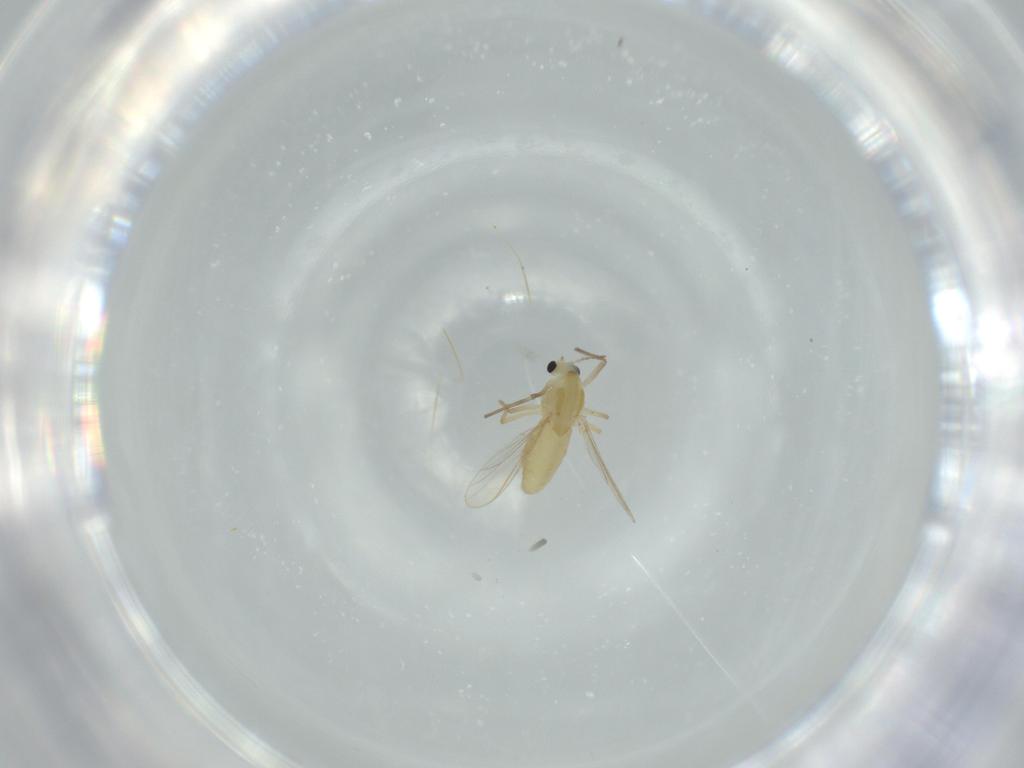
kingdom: Animalia
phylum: Arthropoda
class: Insecta
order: Diptera
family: Chironomidae
